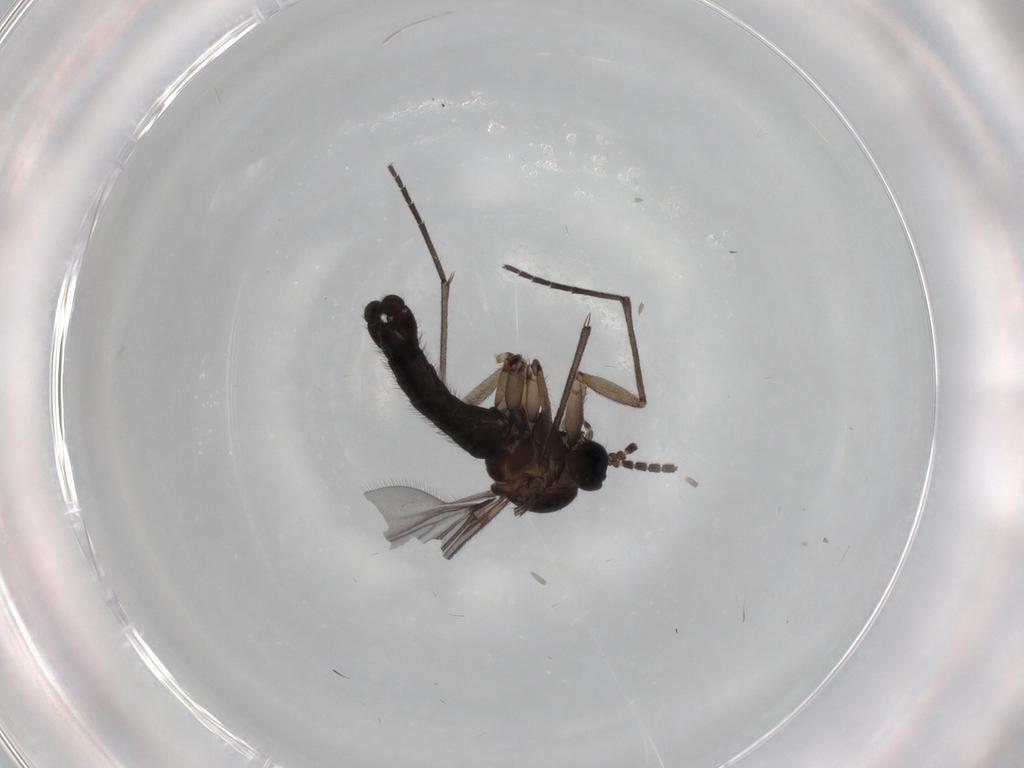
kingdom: Animalia
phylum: Arthropoda
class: Insecta
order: Diptera
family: Sciaridae
